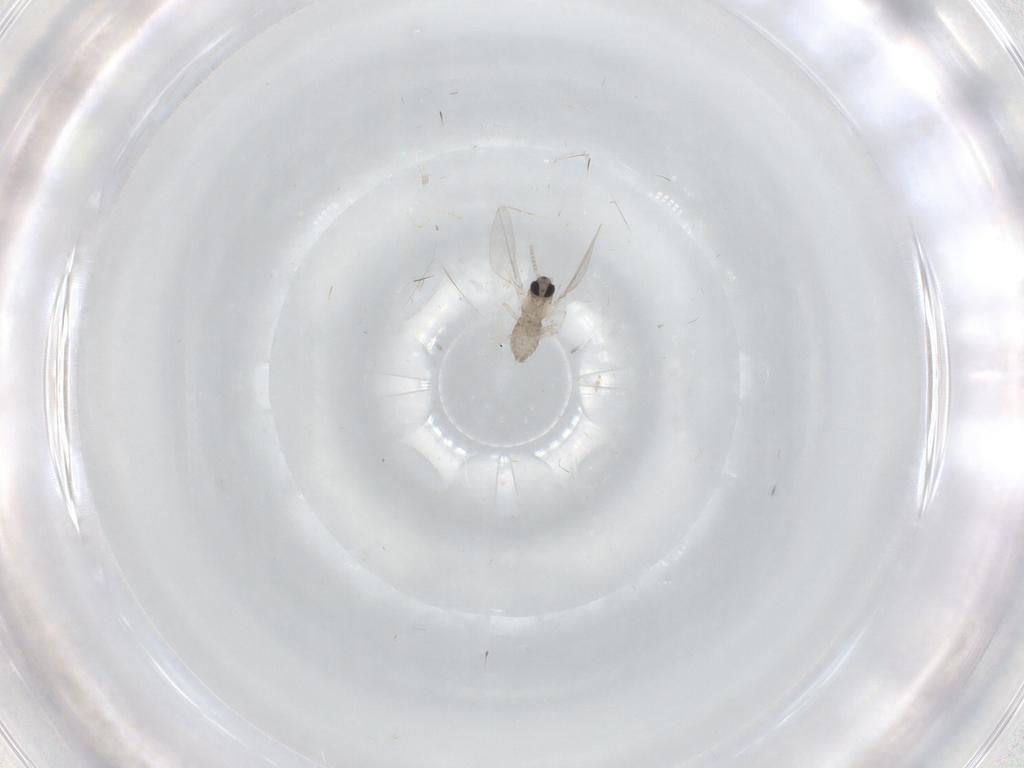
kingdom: Animalia
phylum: Arthropoda
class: Insecta
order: Diptera
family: Cecidomyiidae
